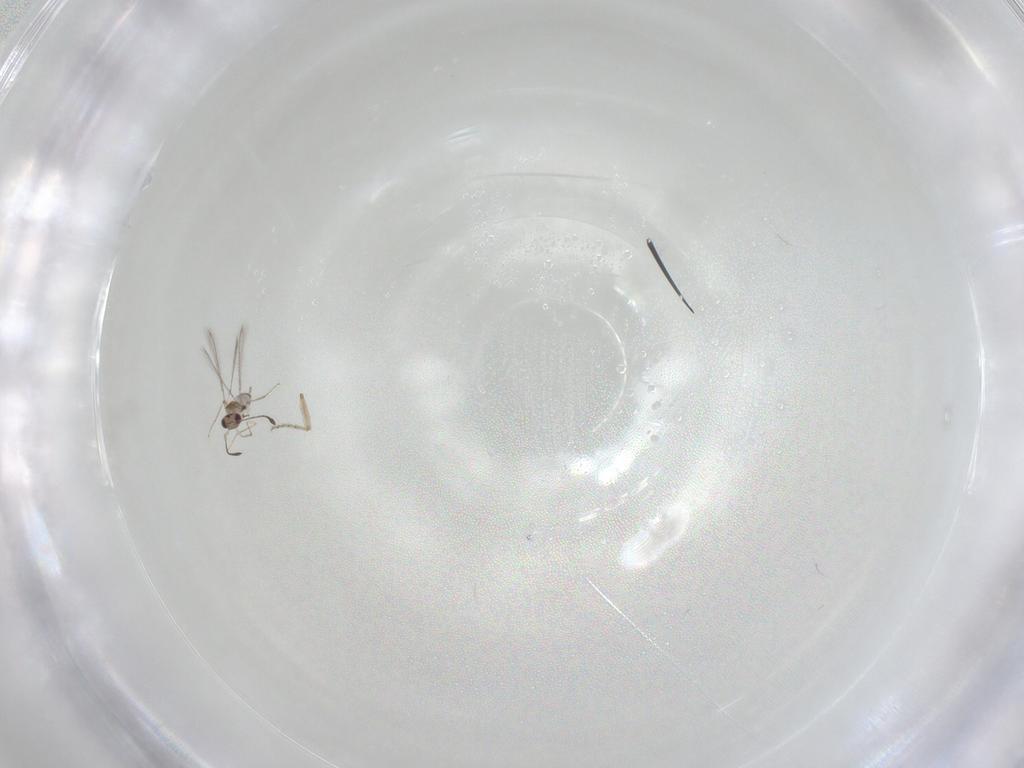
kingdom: Animalia
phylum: Arthropoda
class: Insecta
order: Hymenoptera
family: Mymaridae
